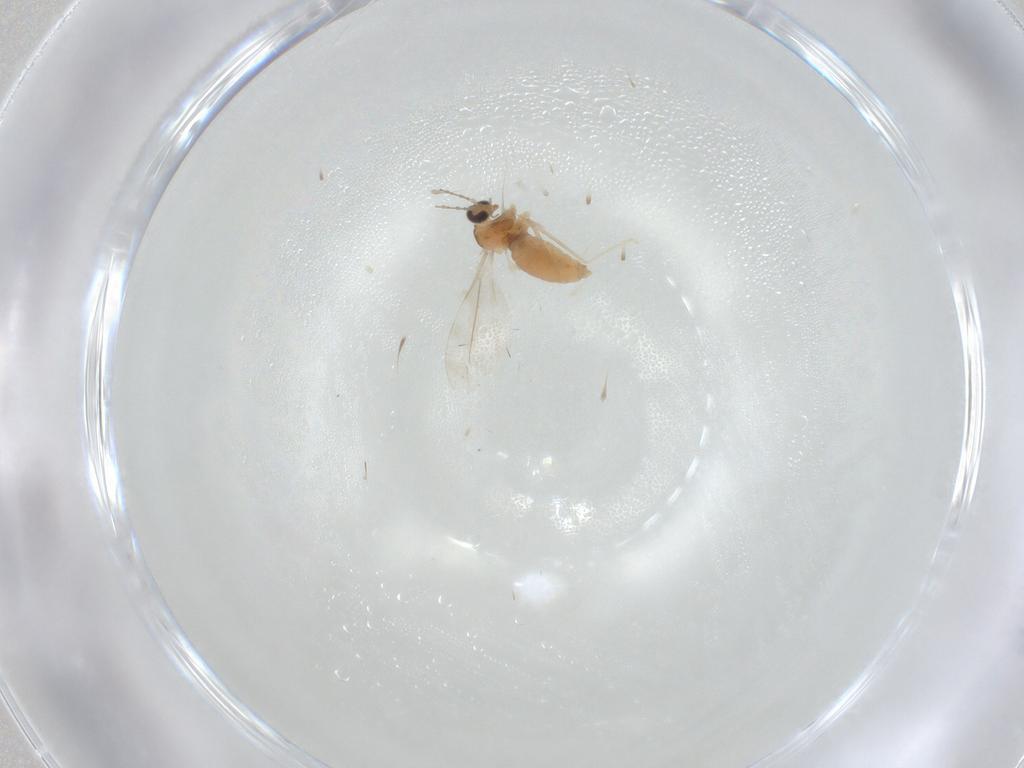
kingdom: Animalia
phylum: Arthropoda
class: Insecta
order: Diptera
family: Cecidomyiidae
